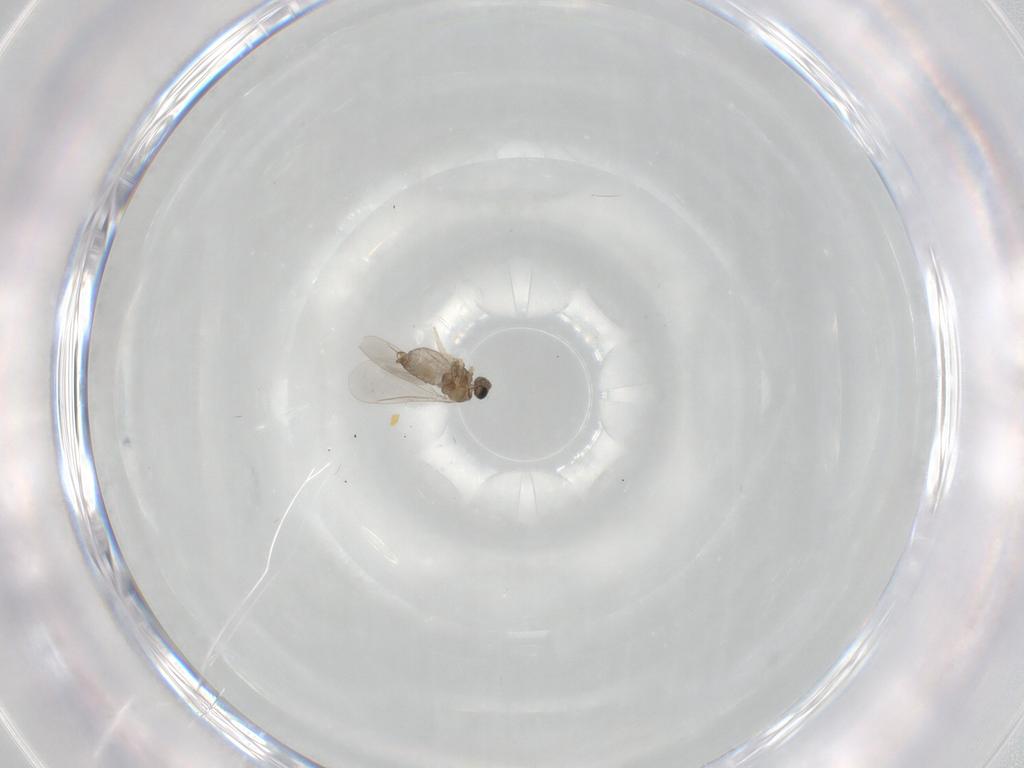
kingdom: Animalia
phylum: Arthropoda
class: Insecta
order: Diptera
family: Cecidomyiidae
